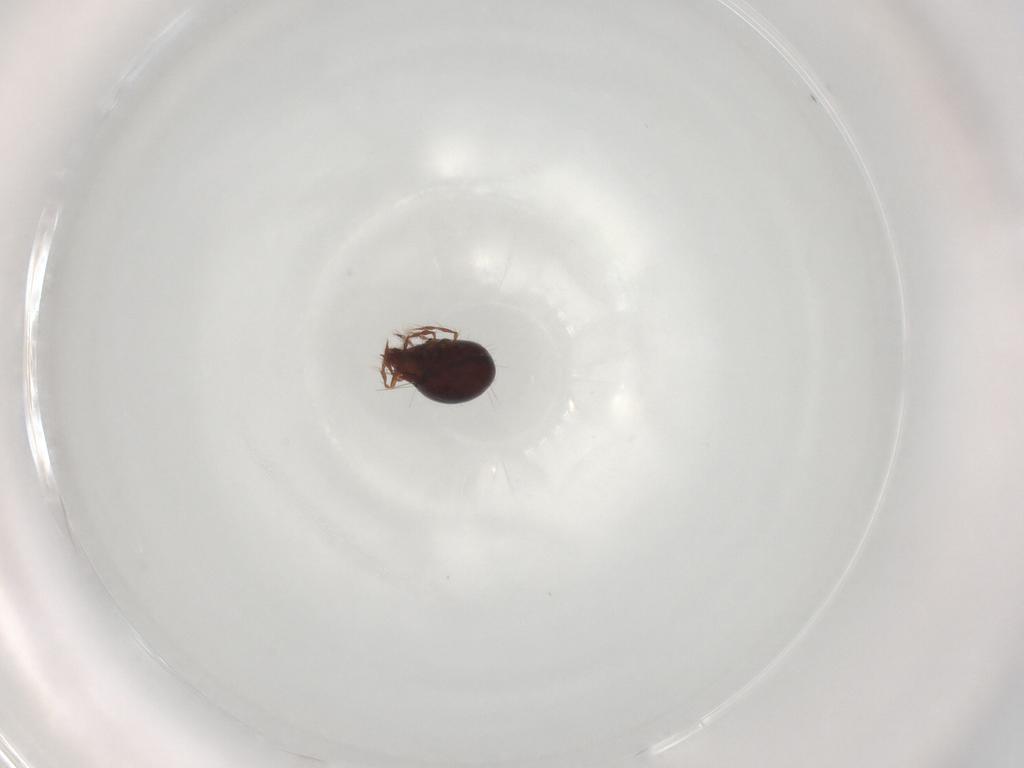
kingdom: Animalia
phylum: Arthropoda
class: Arachnida
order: Sarcoptiformes
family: Ceratoppiidae
